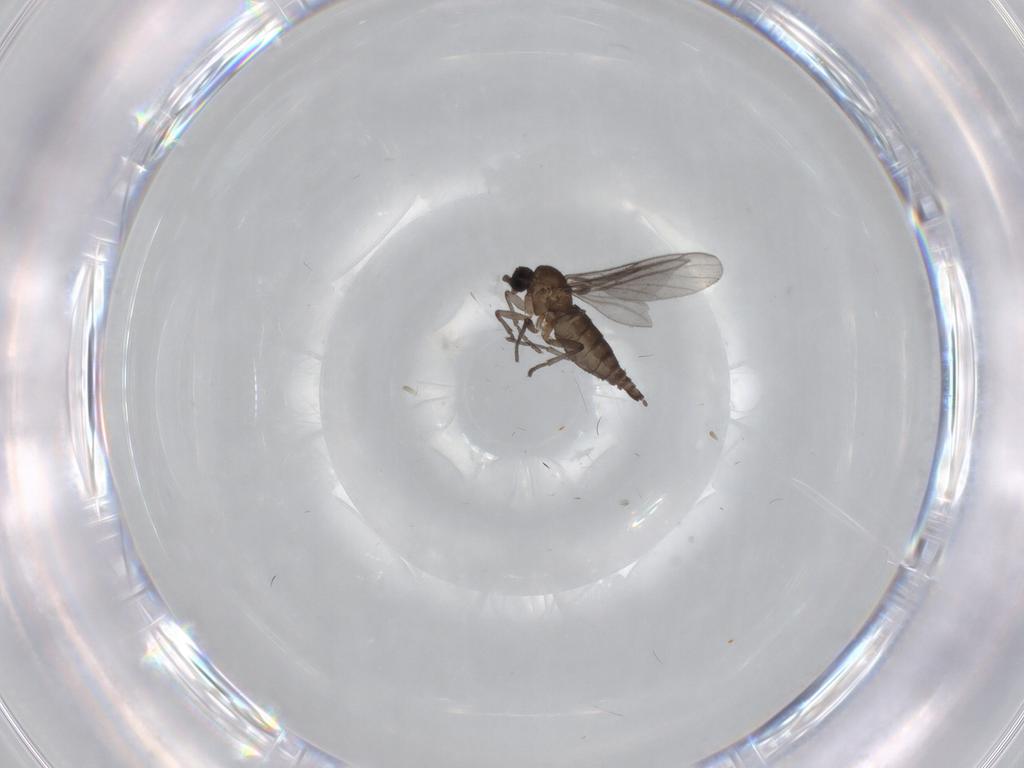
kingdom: Animalia
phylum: Arthropoda
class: Insecta
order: Diptera
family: Sciaridae
